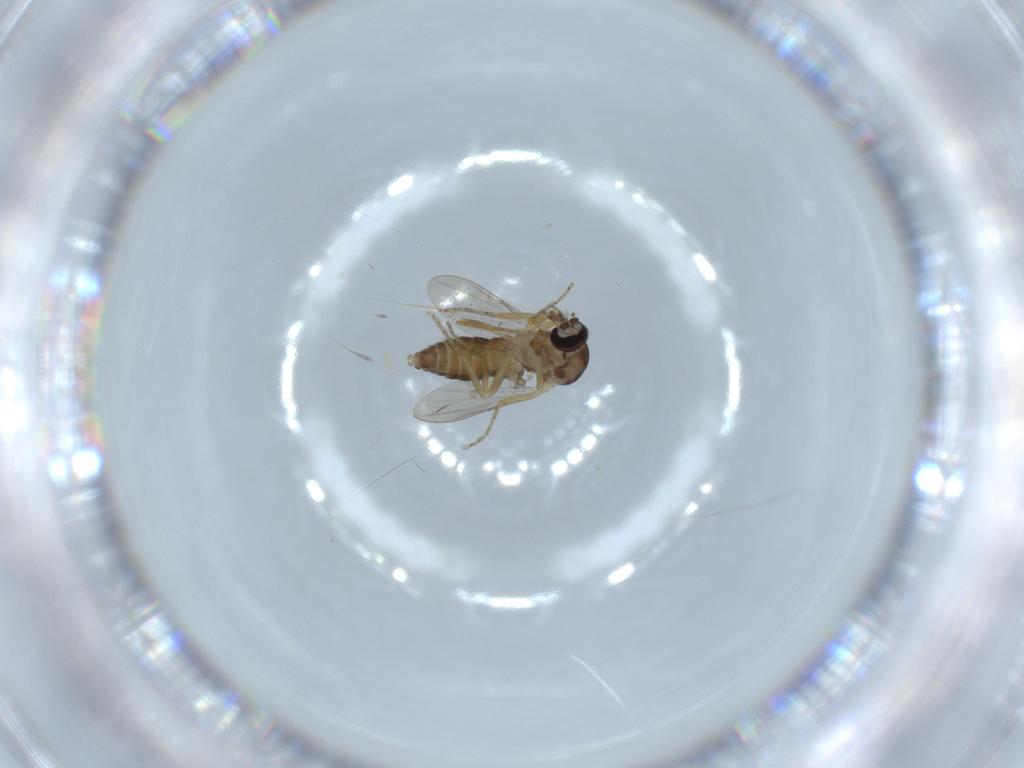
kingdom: Animalia
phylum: Arthropoda
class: Insecta
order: Diptera
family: Ceratopogonidae
